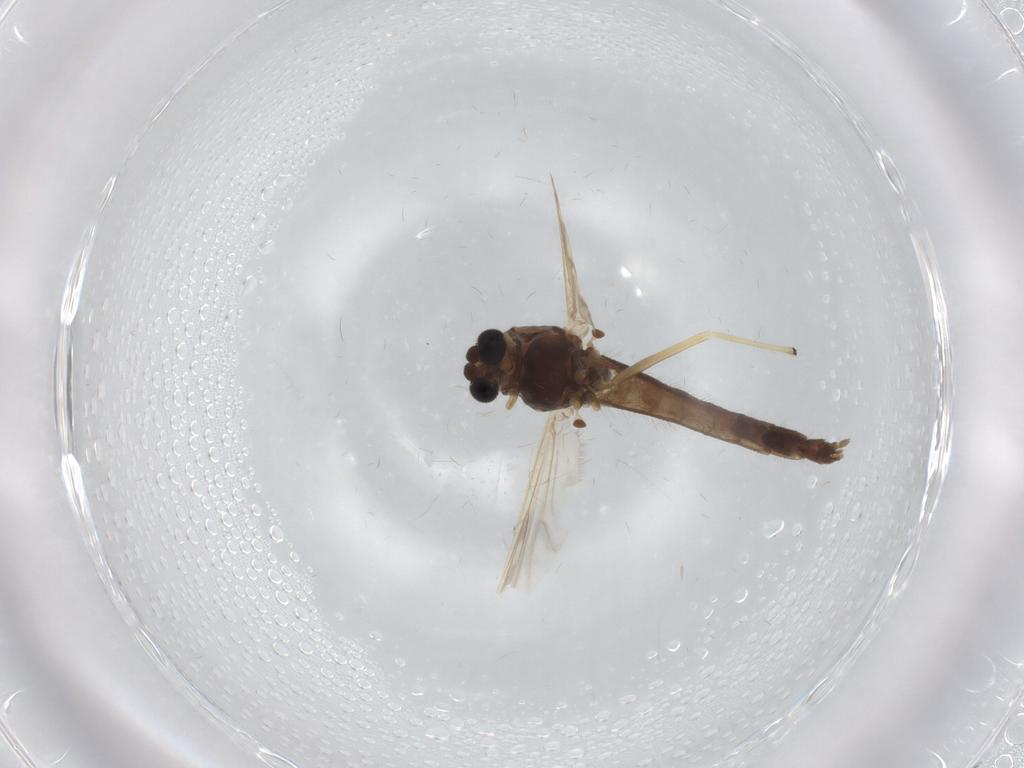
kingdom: Animalia
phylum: Arthropoda
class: Insecta
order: Diptera
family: Chironomidae
